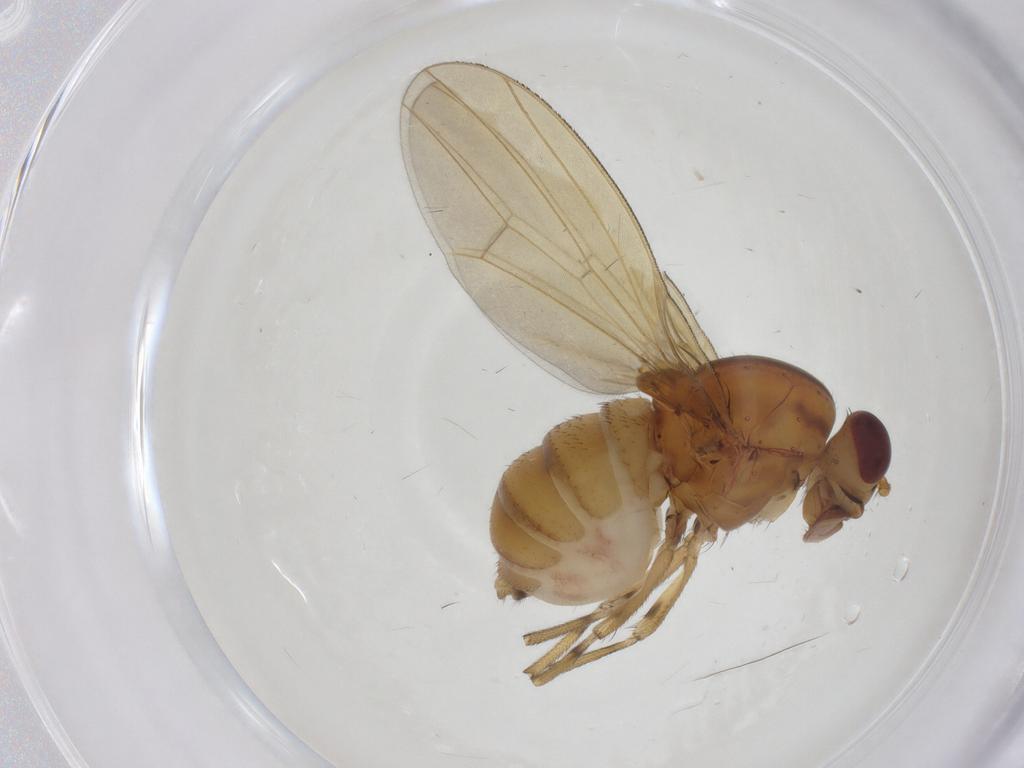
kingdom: Animalia
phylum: Arthropoda
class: Insecta
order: Diptera
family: Lauxaniidae
